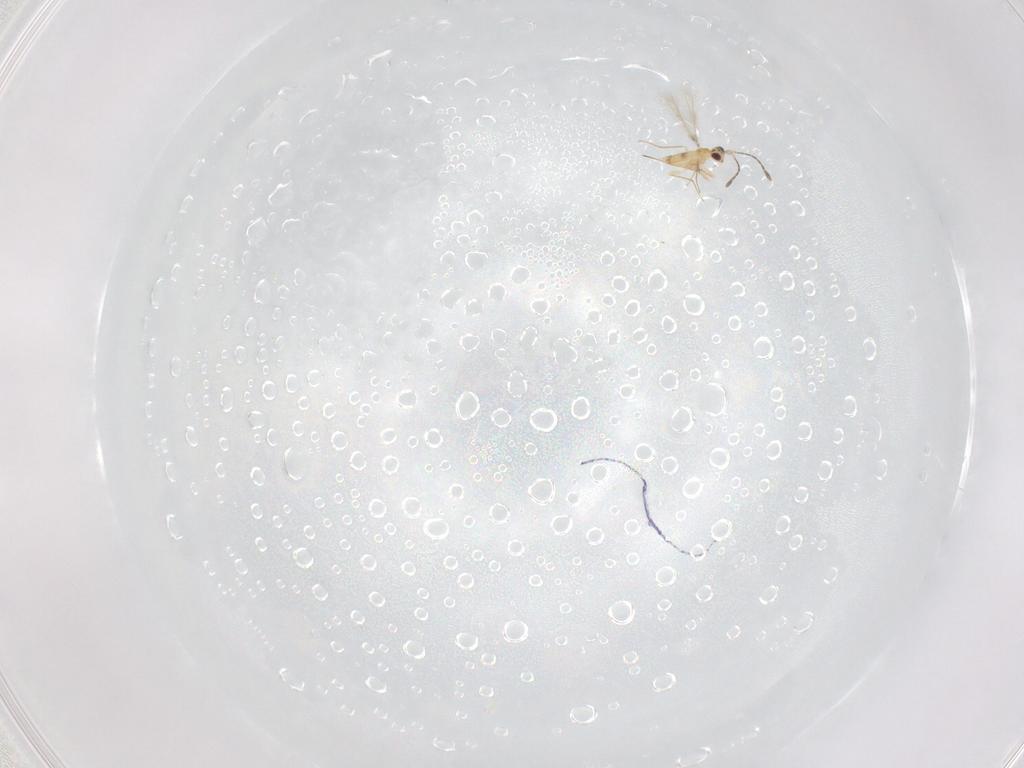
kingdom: Animalia
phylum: Arthropoda
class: Insecta
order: Hymenoptera
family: Mymaridae
